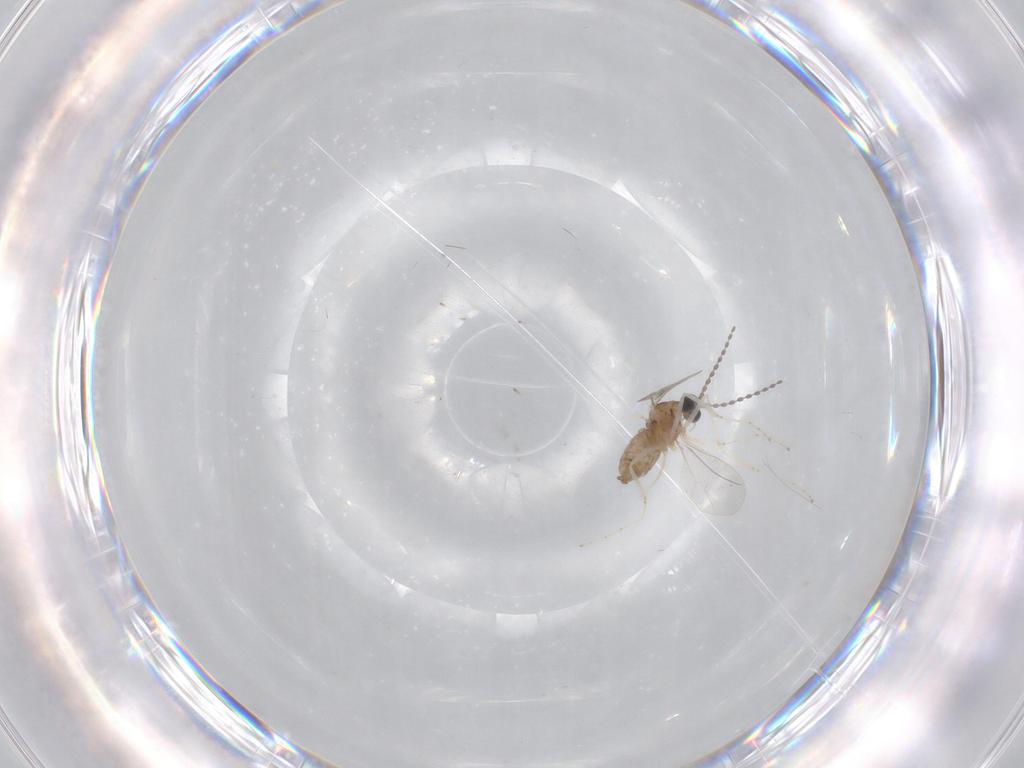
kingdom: Animalia
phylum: Arthropoda
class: Insecta
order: Diptera
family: Cecidomyiidae
